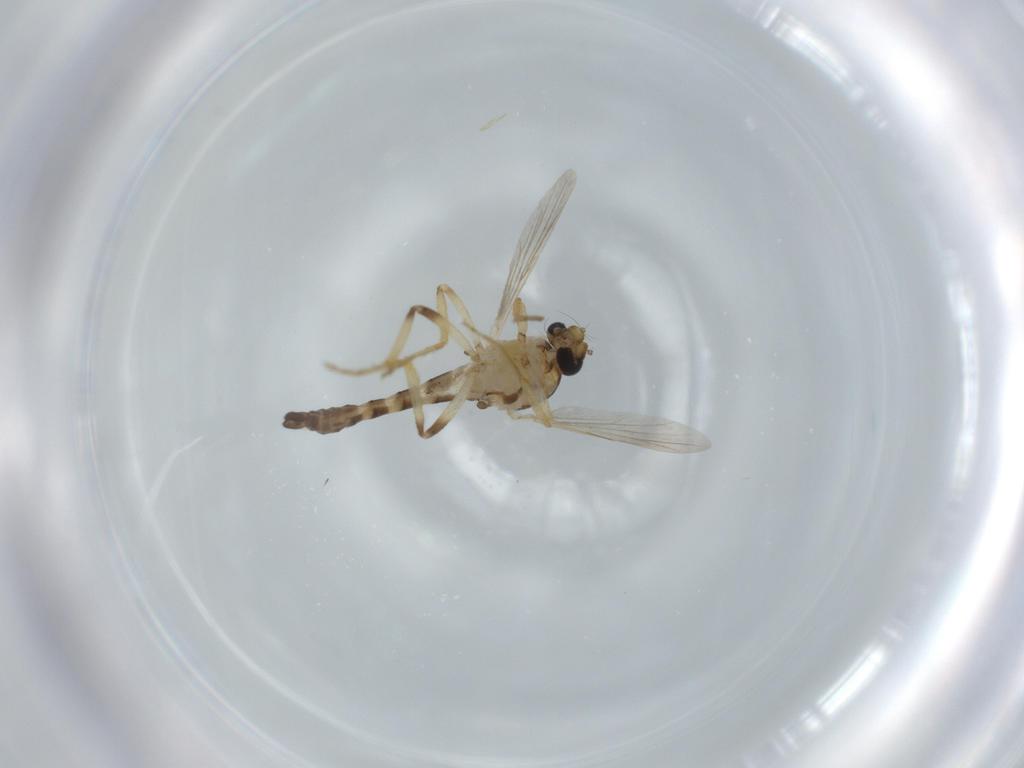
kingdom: Animalia
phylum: Arthropoda
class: Insecta
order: Diptera
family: Ceratopogonidae
